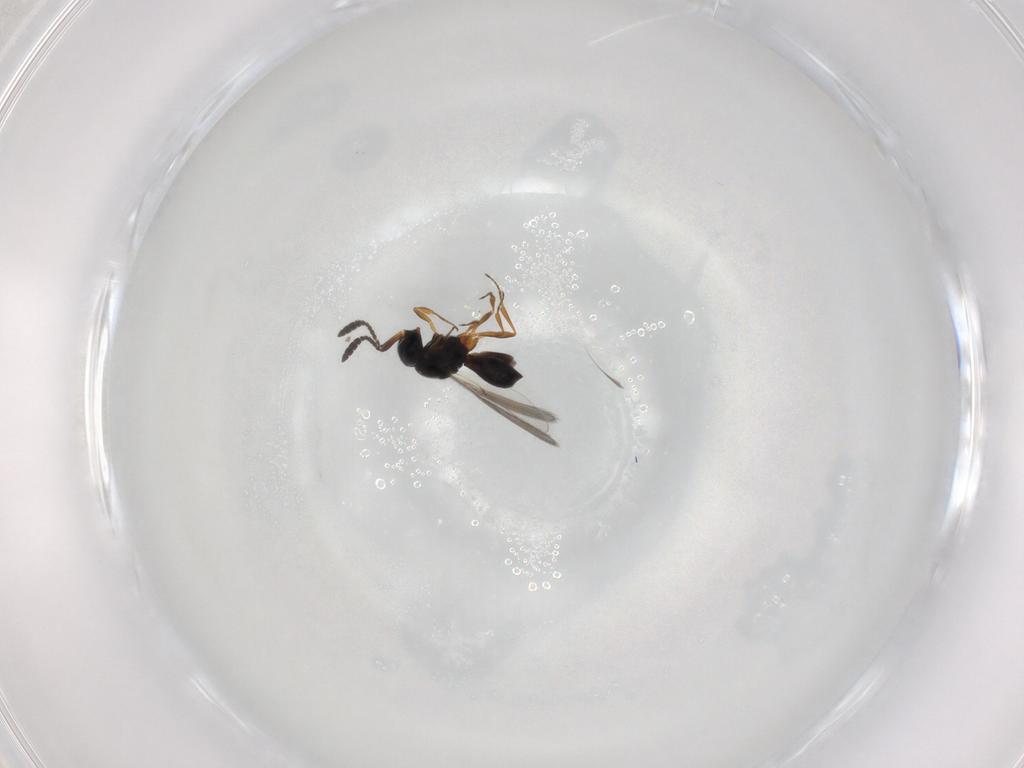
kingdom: Animalia
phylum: Arthropoda
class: Insecta
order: Hymenoptera
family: Scelionidae
